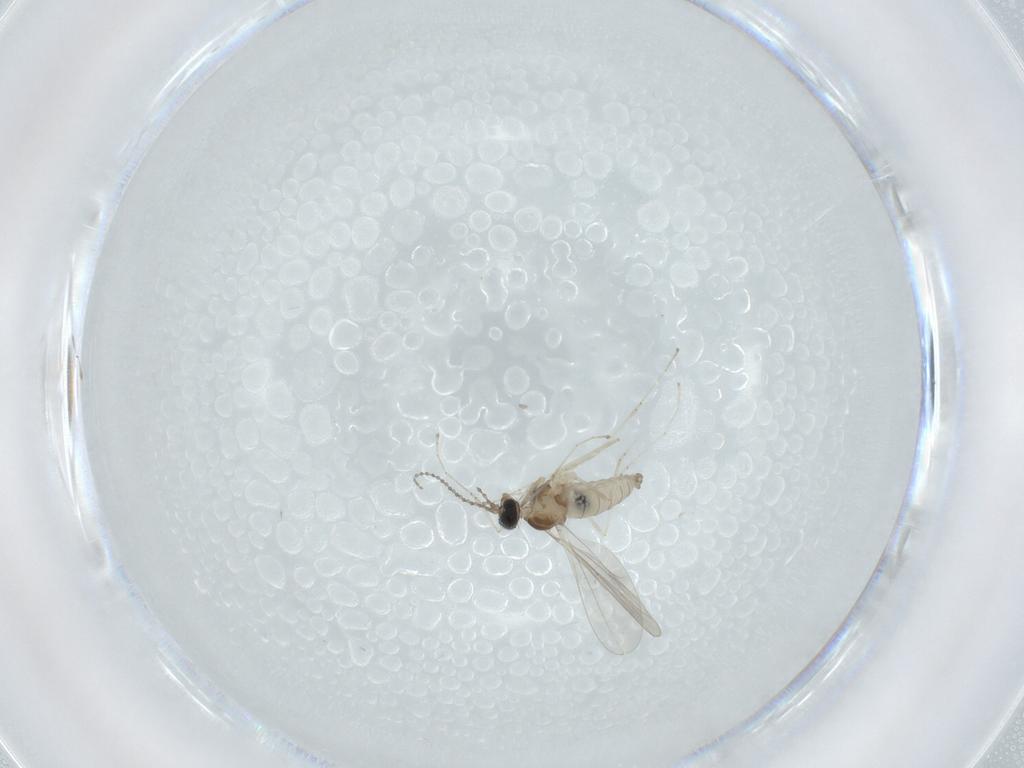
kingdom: Animalia
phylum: Arthropoda
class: Insecta
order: Diptera
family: Cecidomyiidae
